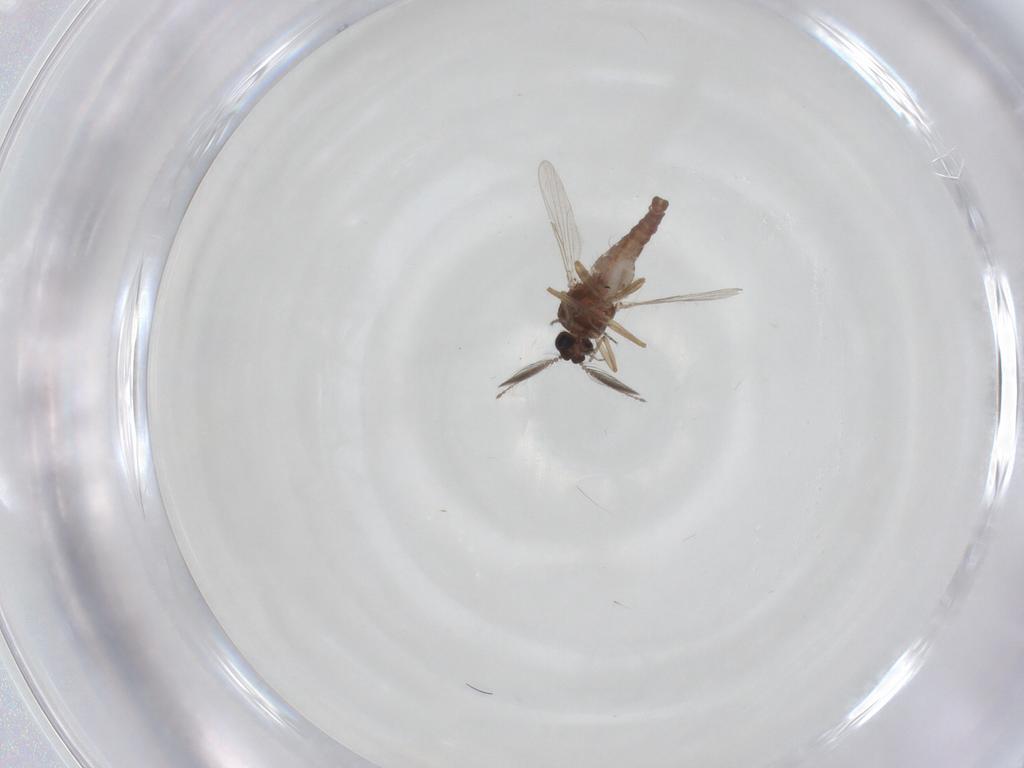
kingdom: Animalia
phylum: Arthropoda
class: Insecta
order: Diptera
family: Ceratopogonidae
